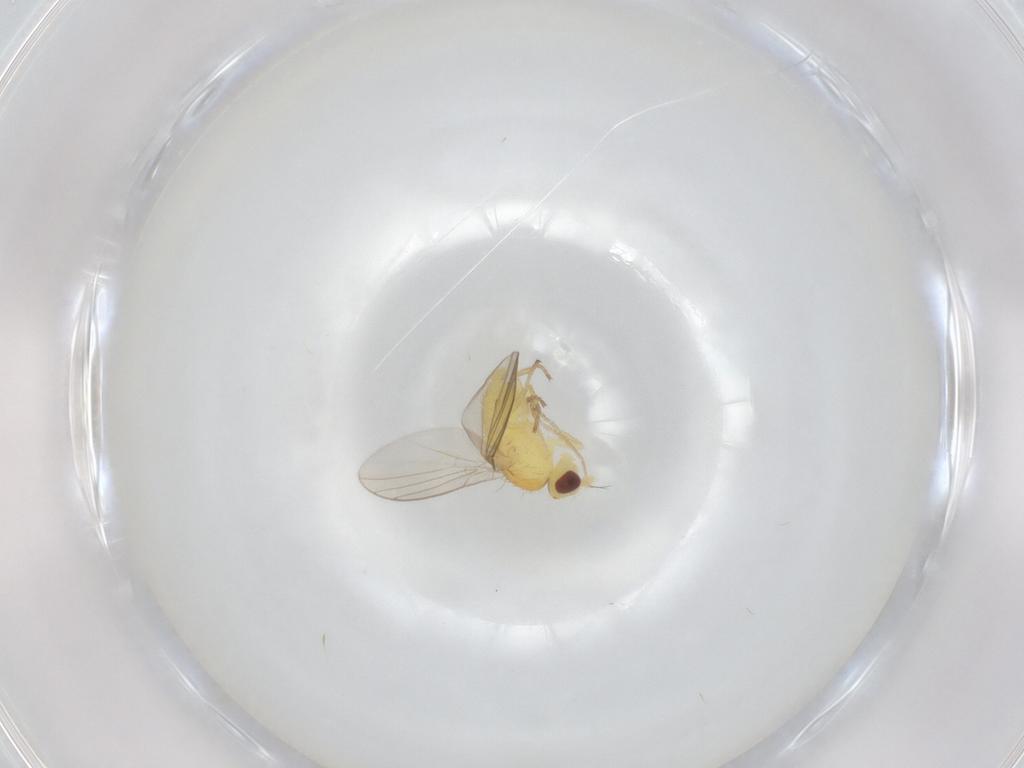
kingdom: Animalia
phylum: Arthropoda
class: Insecta
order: Diptera
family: Agromyzidae
